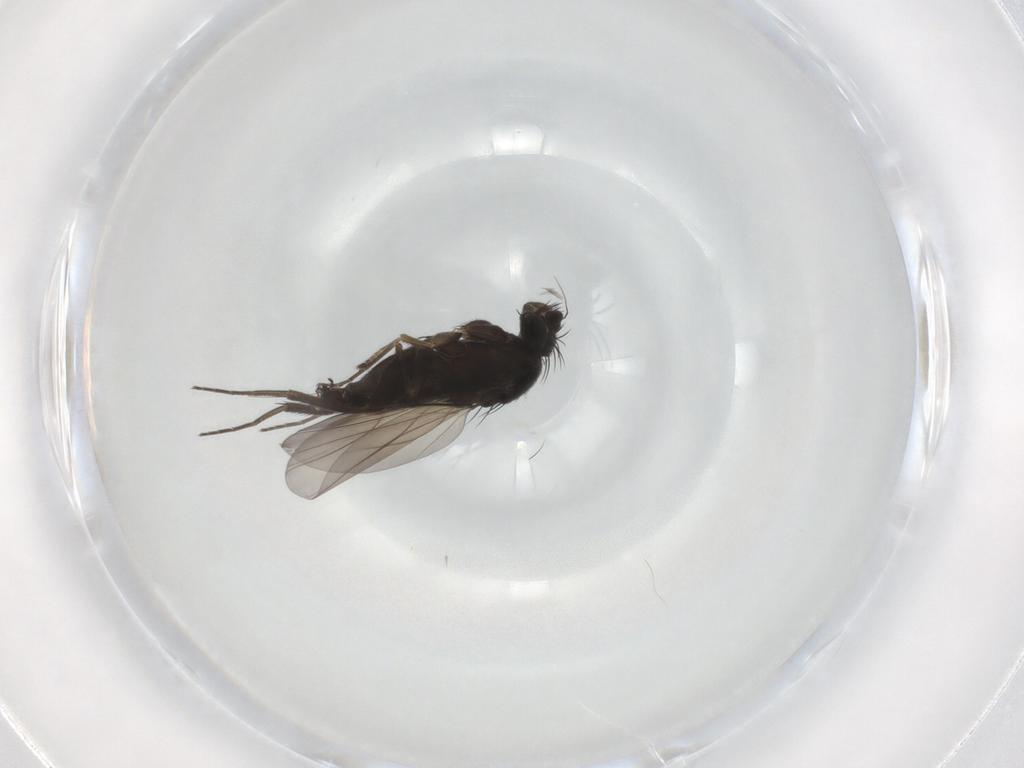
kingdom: Animalia
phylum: Arthropoda
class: Insecta
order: Diptera
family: Phoridae
